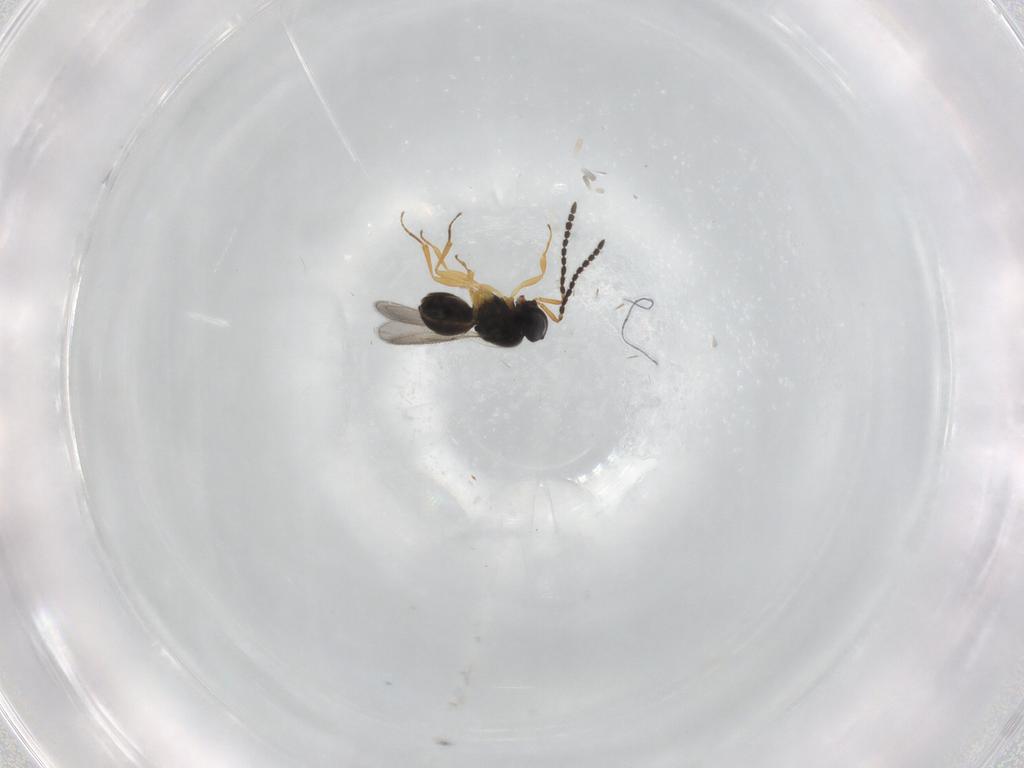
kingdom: Animalia
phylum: Arthropoda
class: Insecta
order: Hymenoptera
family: Scelionidae
